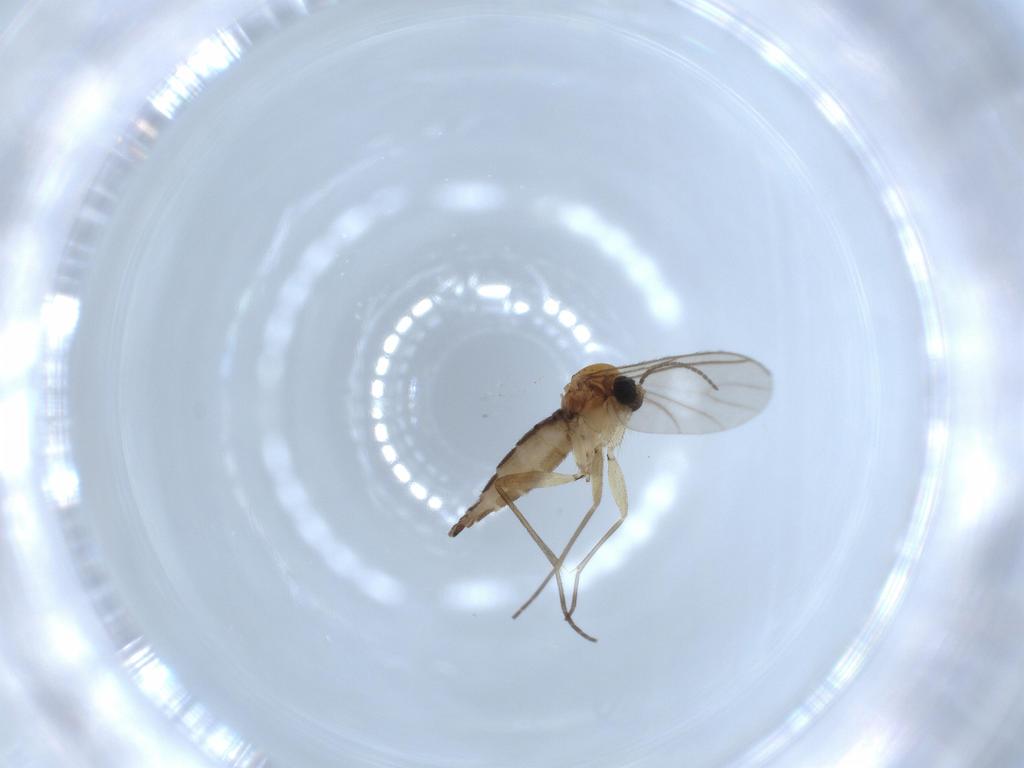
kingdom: Animalia
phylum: Arthropoda
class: Insecta
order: Diptera
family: Sciaridae
